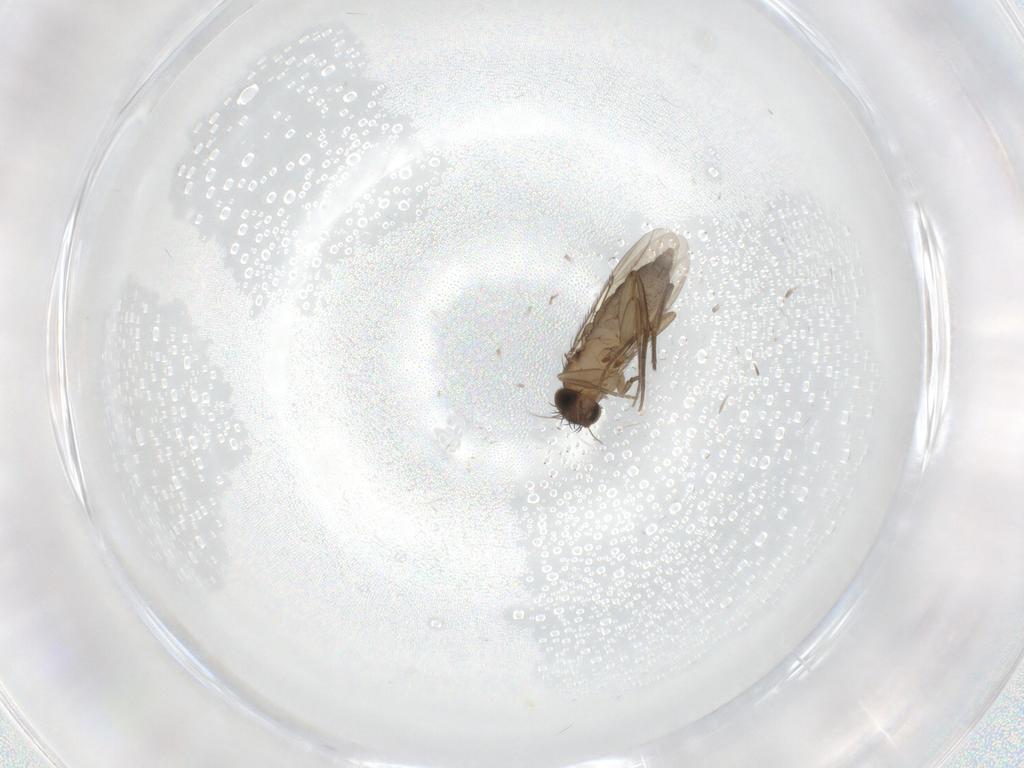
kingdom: Animalia
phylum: Arthropoda
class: Insecta
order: Diptera
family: Phoridae
